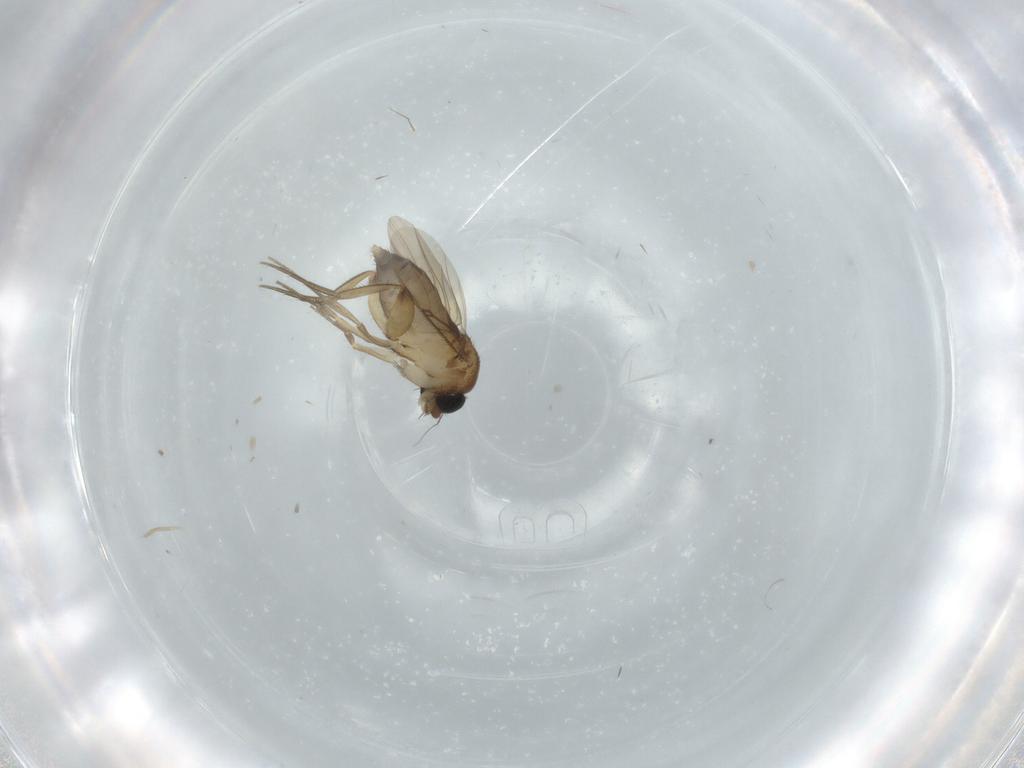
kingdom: Animalia
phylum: Arthropoda
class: Insecta
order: Diptera
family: Phoridae
